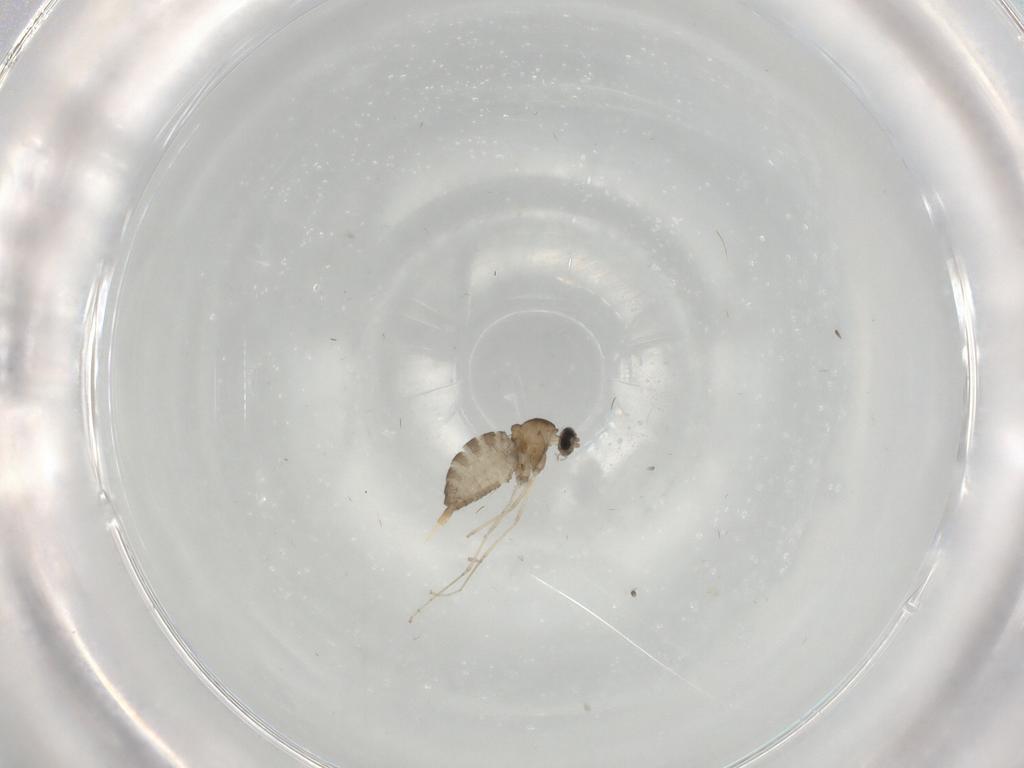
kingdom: Animalia
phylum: Arthropoda
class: Insecta
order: Diptera
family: Cecidomyiidae
